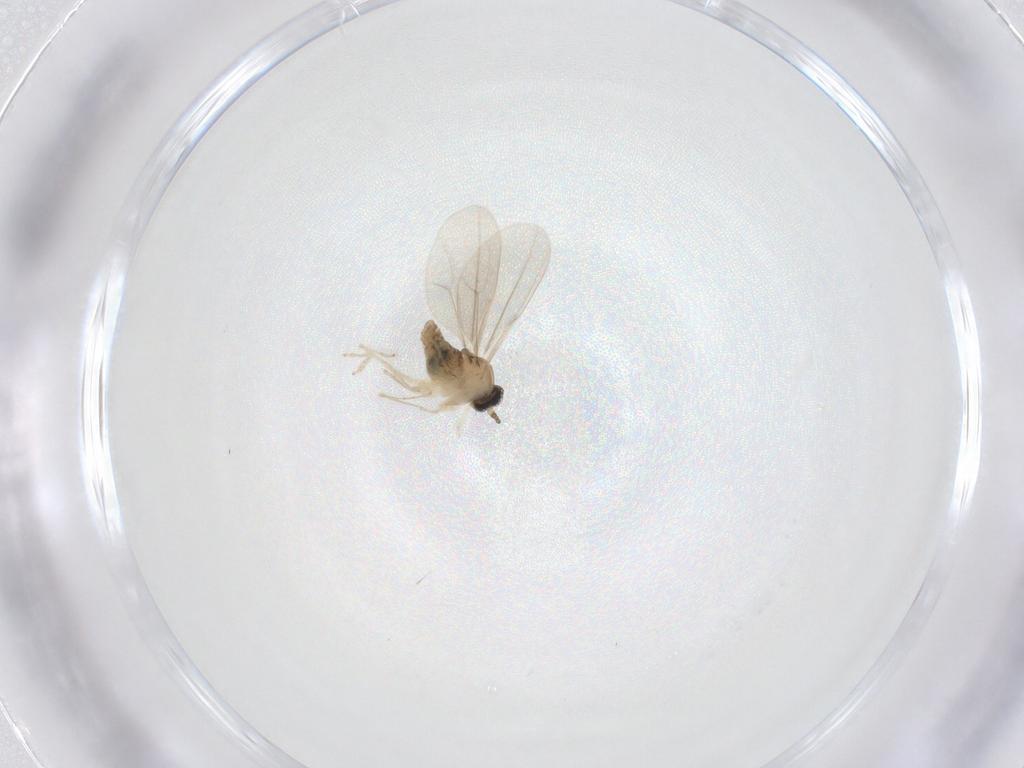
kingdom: Animalia
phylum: Arthropoda
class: Insecta
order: Diptera
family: Cecidomyiidae
